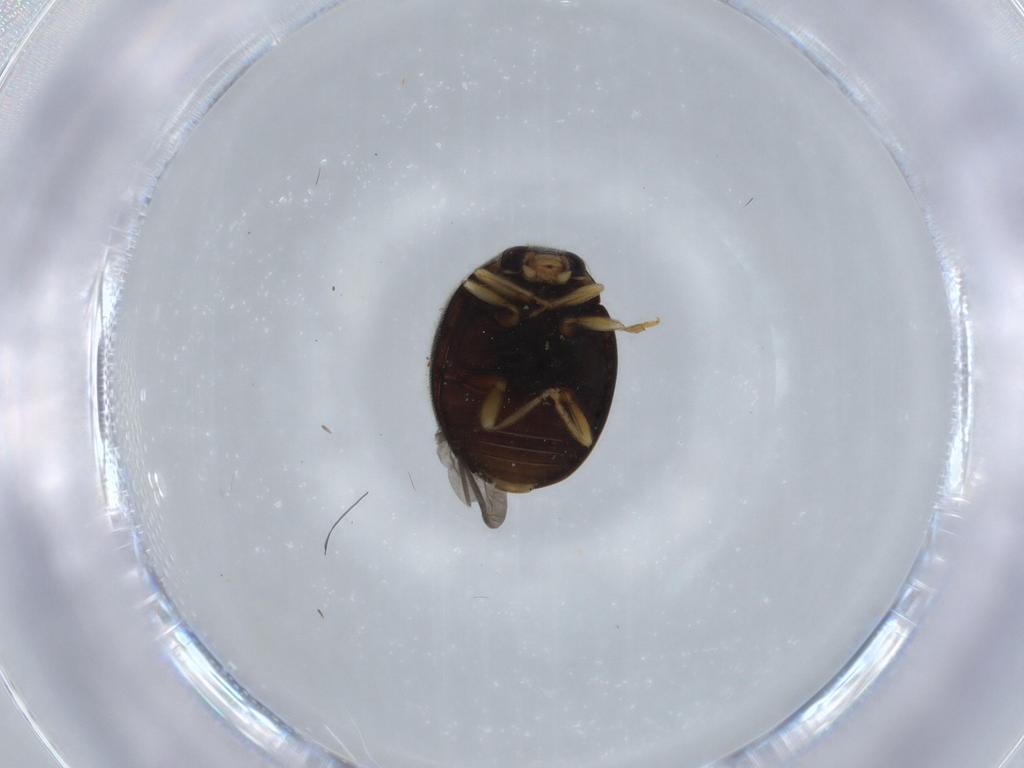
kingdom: Animalia
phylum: Arthropoda
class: Insecta
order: Coleoptera
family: Coccinellidae
